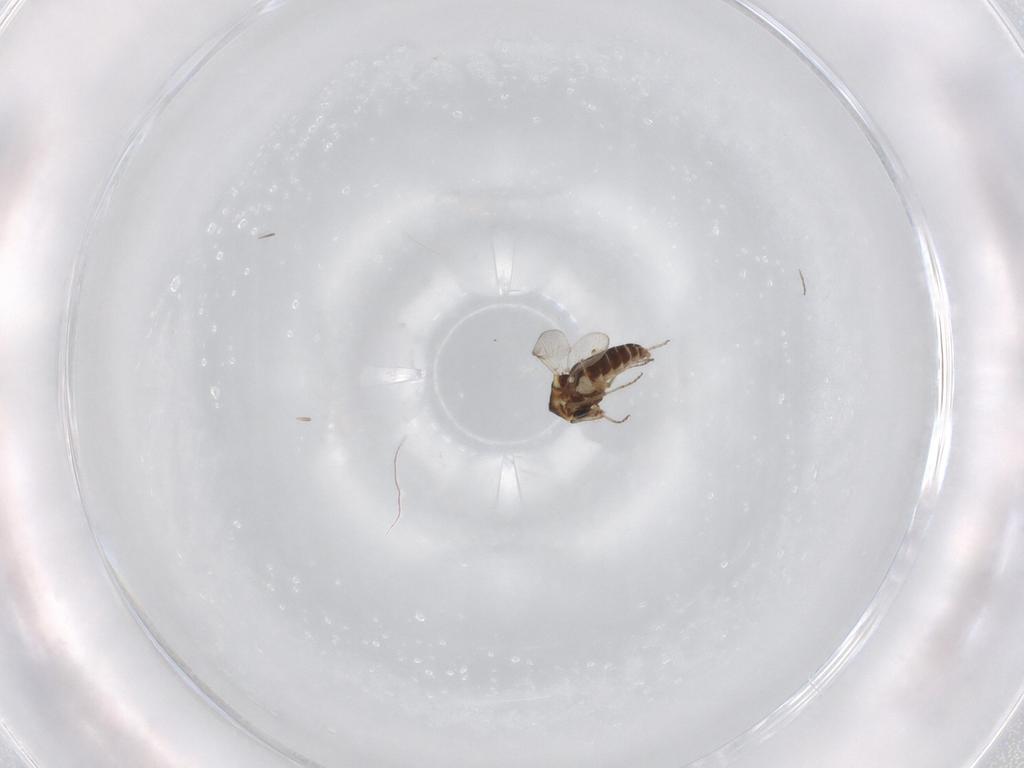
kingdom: Animalia
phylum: Arthropoda
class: Insecta
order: Diptera
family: Ceratopogonidae
